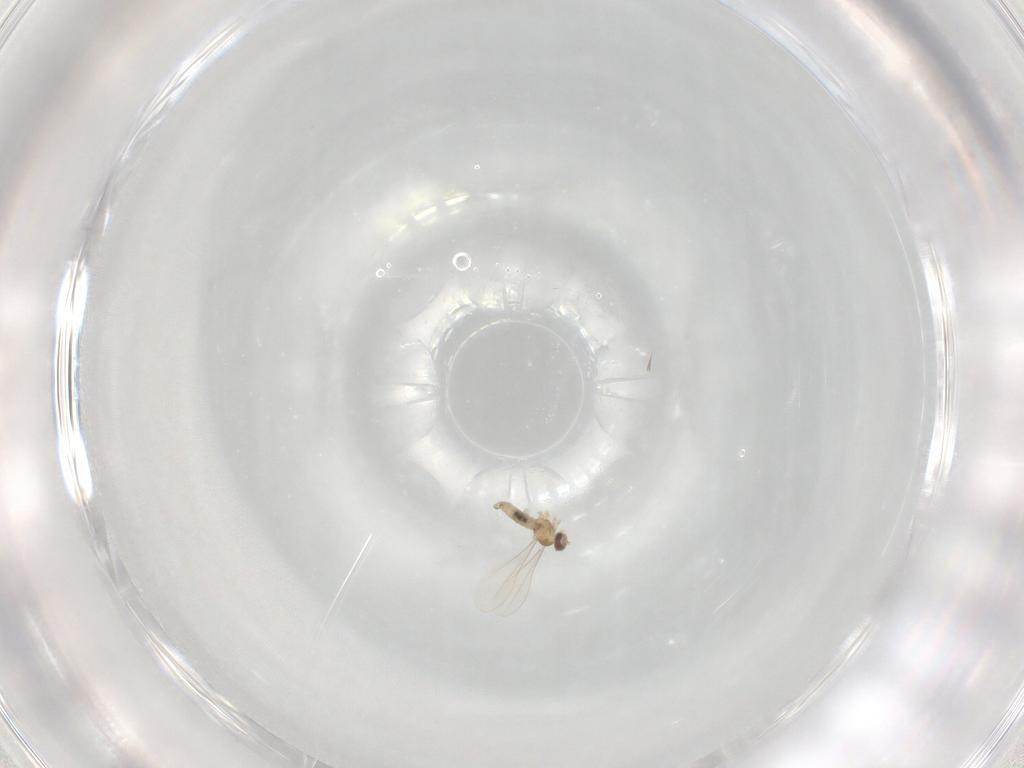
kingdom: Animalia
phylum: Arthropoda
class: Insecta
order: Diptera
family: Cecidomyiidae
